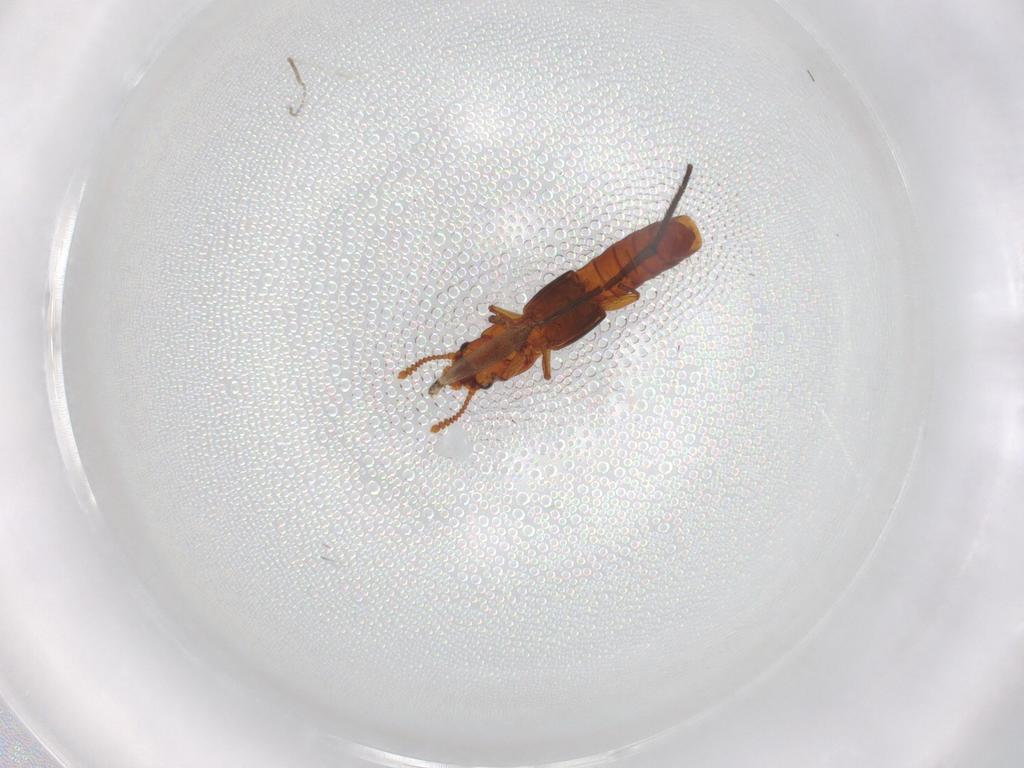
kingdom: Animalia
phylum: Arthropoda
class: Insecta
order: Coleoptera
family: Staphylinidae
